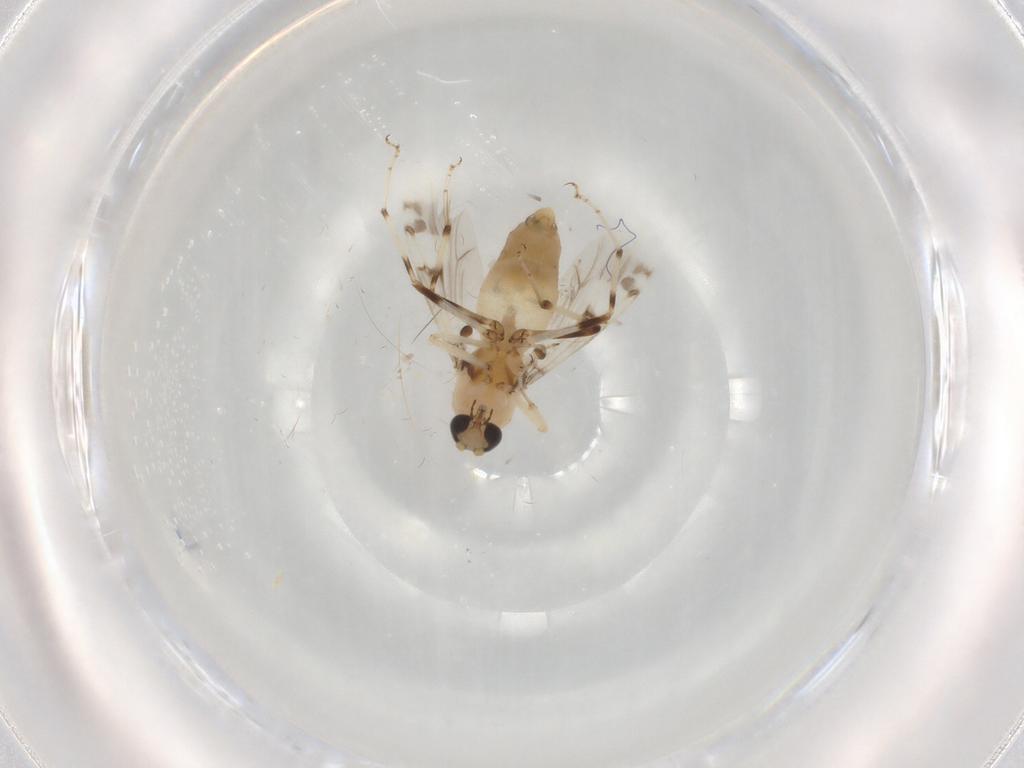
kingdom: Animalia
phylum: Arthropoda
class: Insecta
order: Diptera
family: Ceratopogonidae
